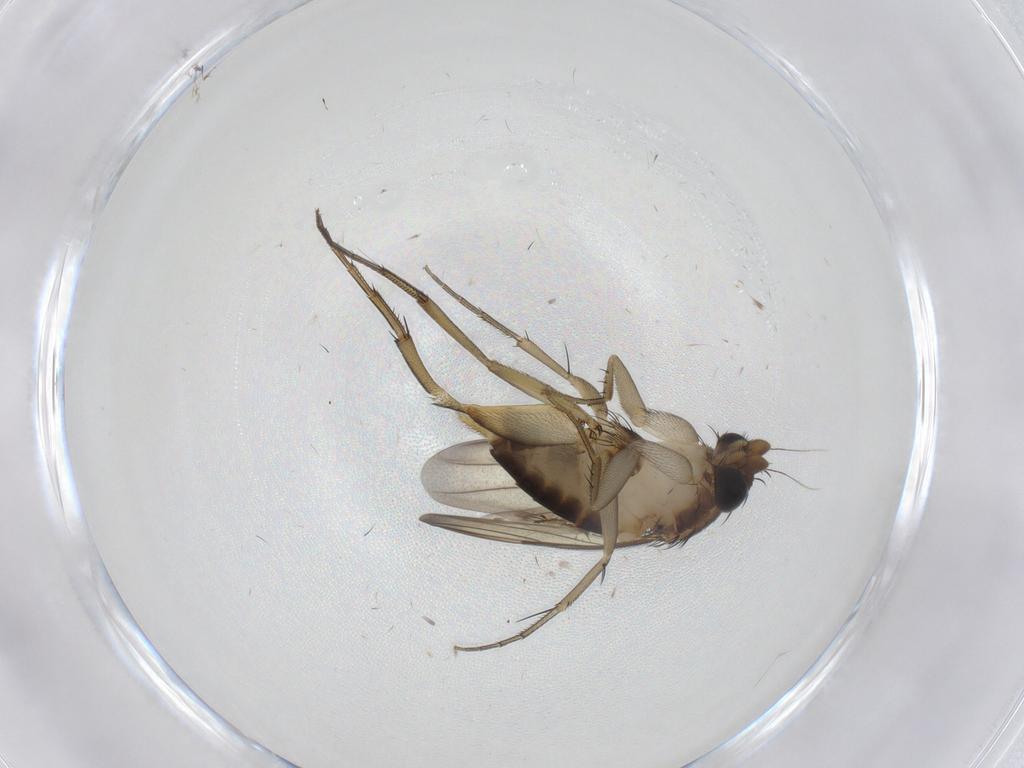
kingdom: Animalia
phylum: Arthropoda
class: Insecta
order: Diptera
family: Phoridae
